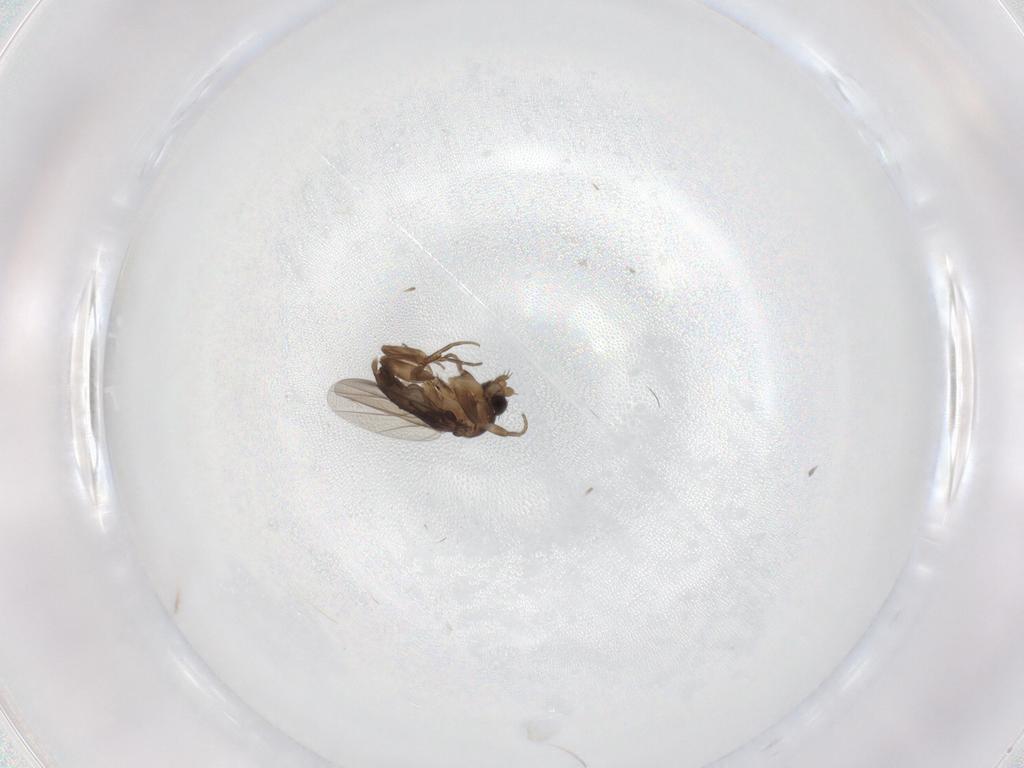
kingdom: Animalia
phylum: Arthropoda
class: Insecta
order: Diptera
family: Phoridae
